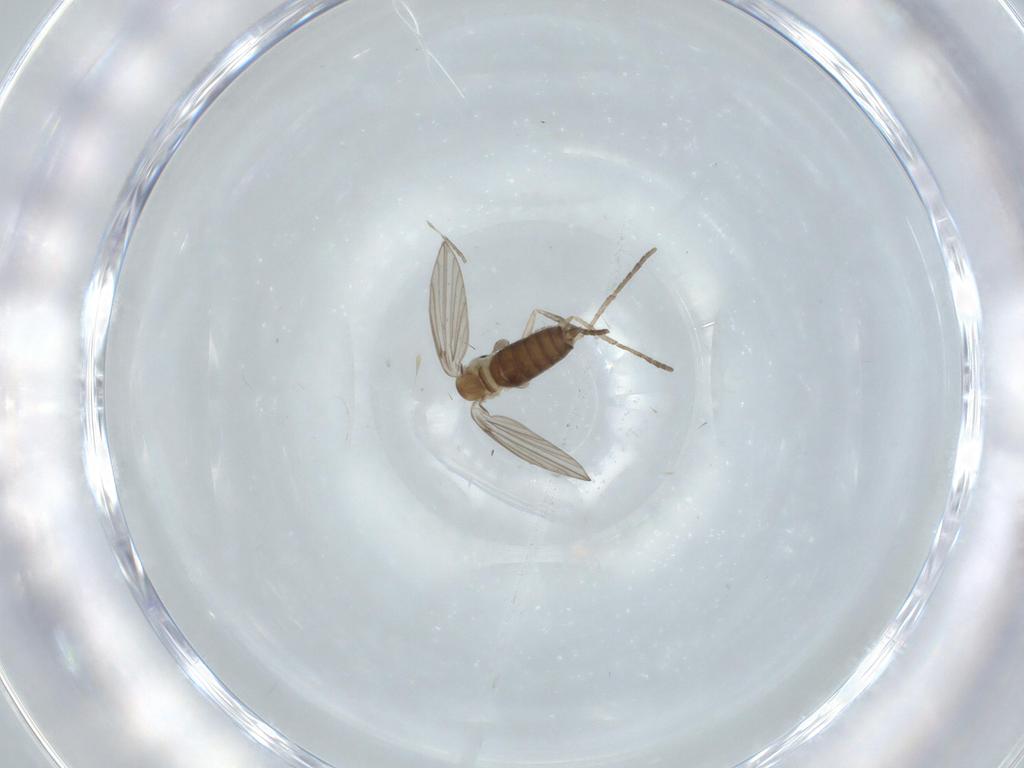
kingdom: Animalia
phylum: Arthropoda
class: Insecta
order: Diptera
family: Psychodidae
